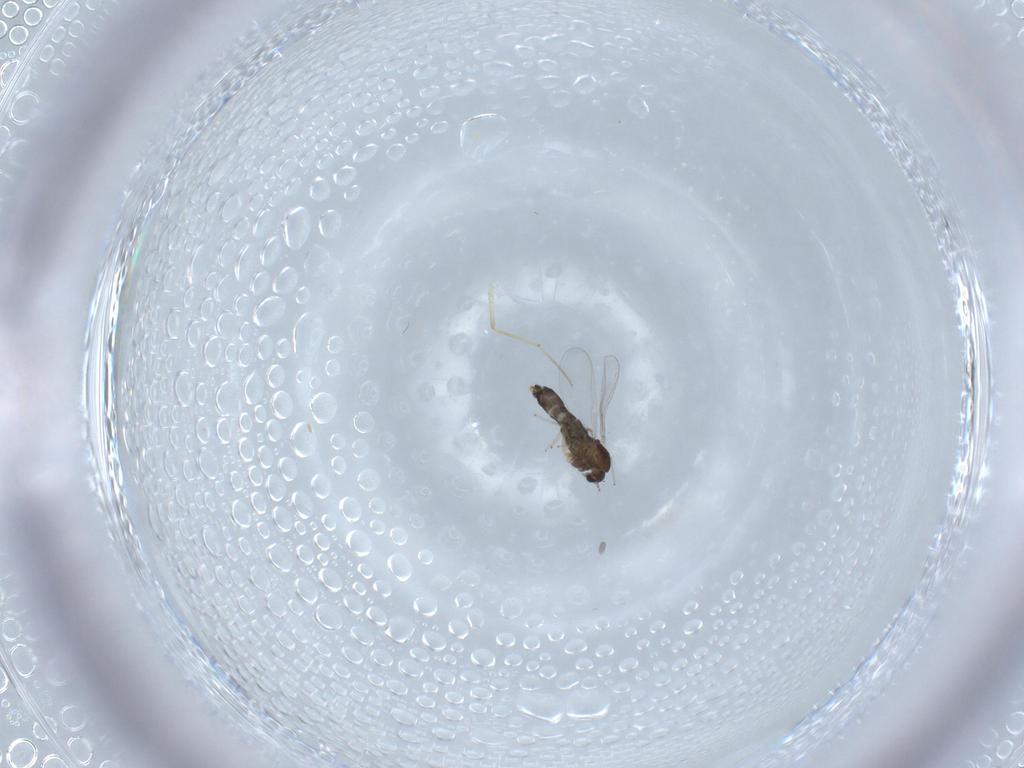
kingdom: Animalia
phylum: Arthropoda
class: Insecta
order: Diptera
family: Chironomidae
